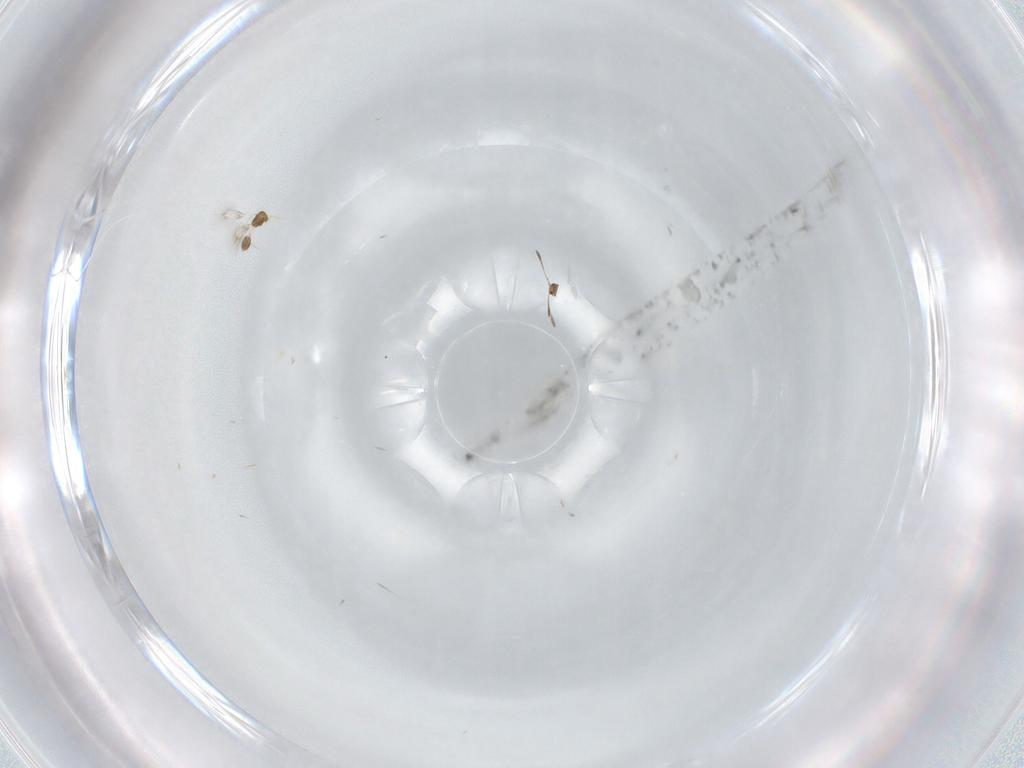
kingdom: Animalia
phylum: Arthropoda
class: Insecta
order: Hymenoptera
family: Mymarommatidae
